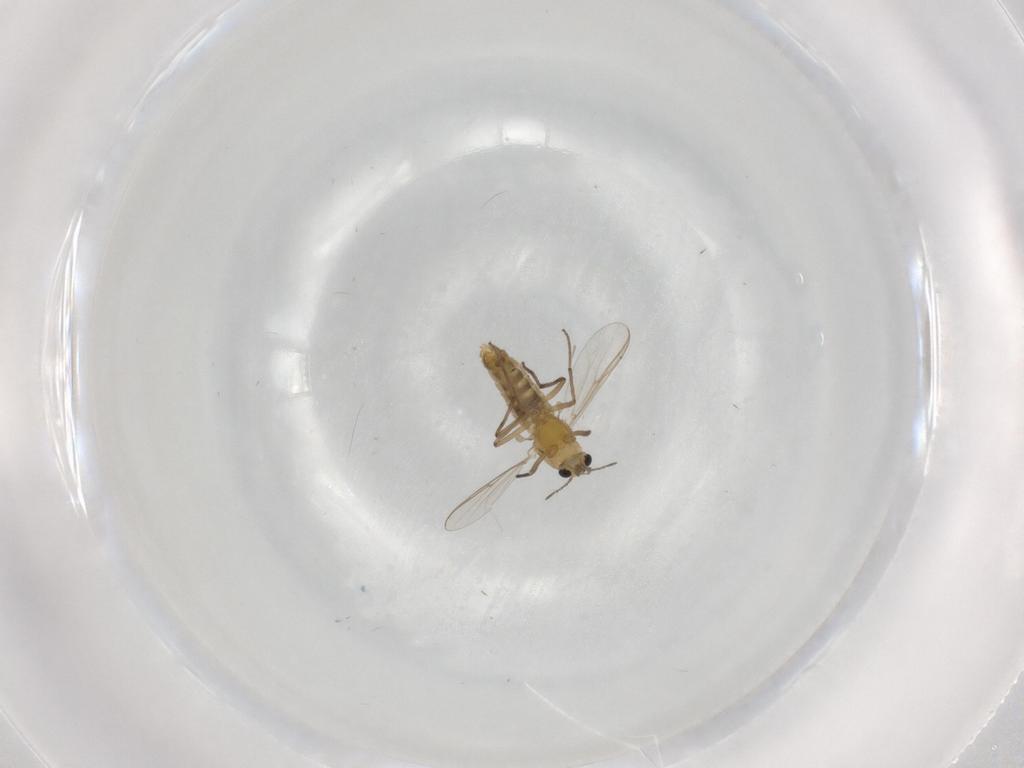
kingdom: Animalia
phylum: Arthropoda
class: Insecta
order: Diptera
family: Chironomidae
